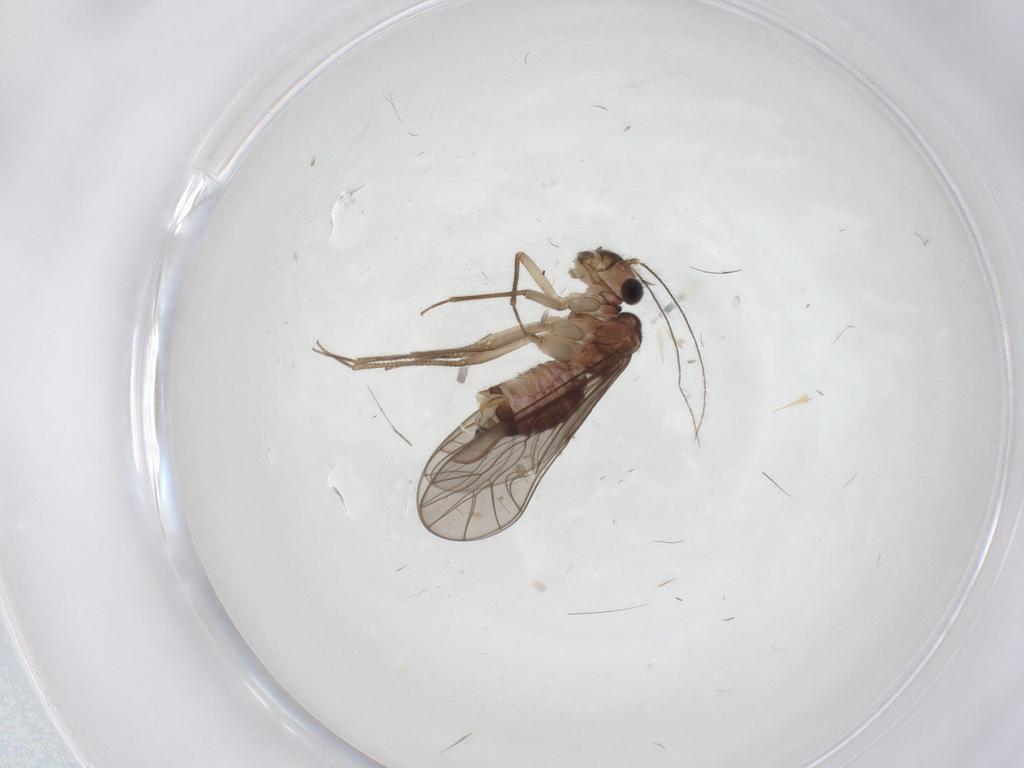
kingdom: Animalia
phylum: Arthropoda
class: Insecta
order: Psocodea
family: Lachesillidae
